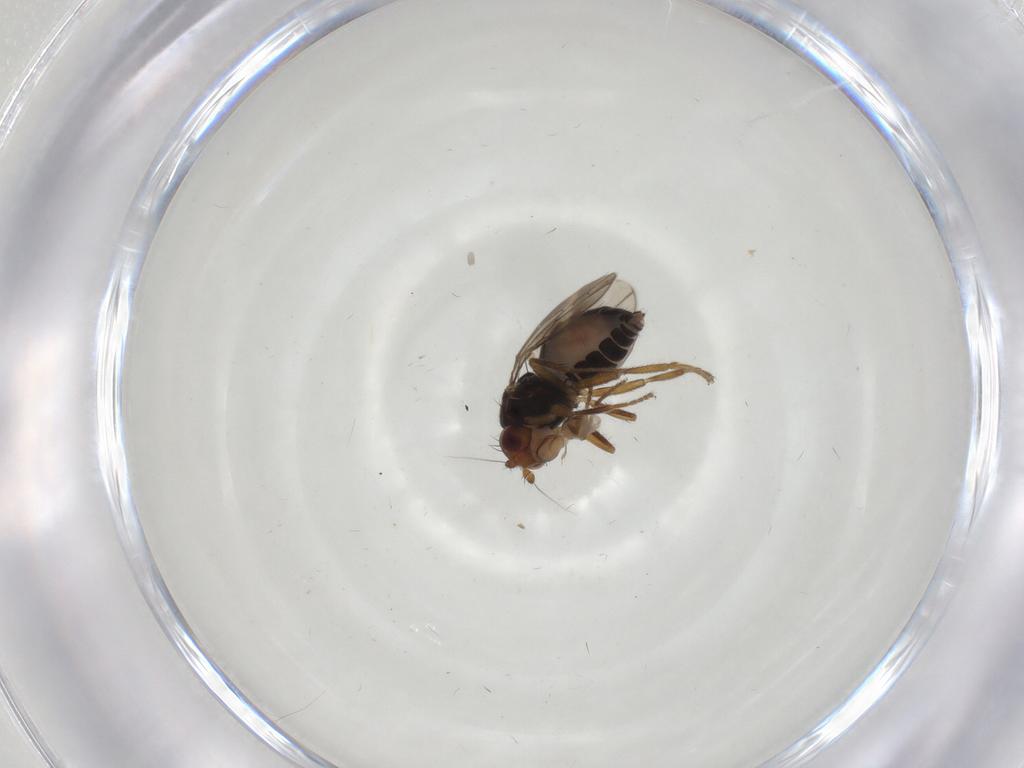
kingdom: Animalia
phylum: Arthropoda
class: Insecta
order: Diptera
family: Sphaeroceridae
